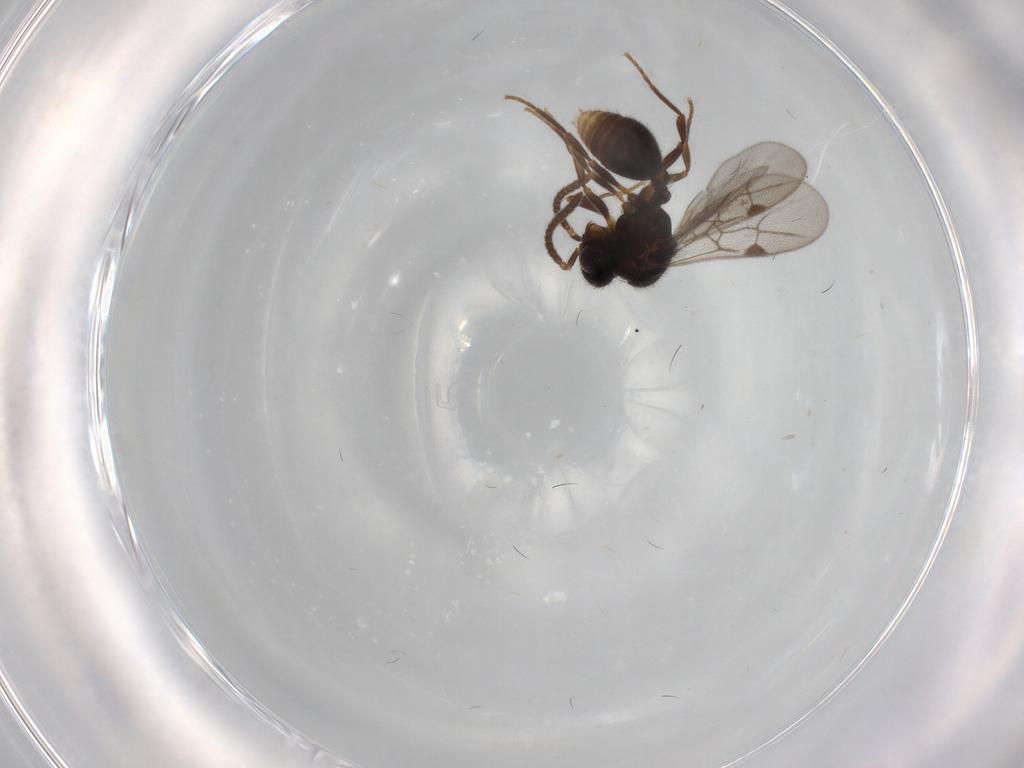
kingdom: Animalia
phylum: Arthropoda
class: Insecta
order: Hymenoptera
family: Formicidae
